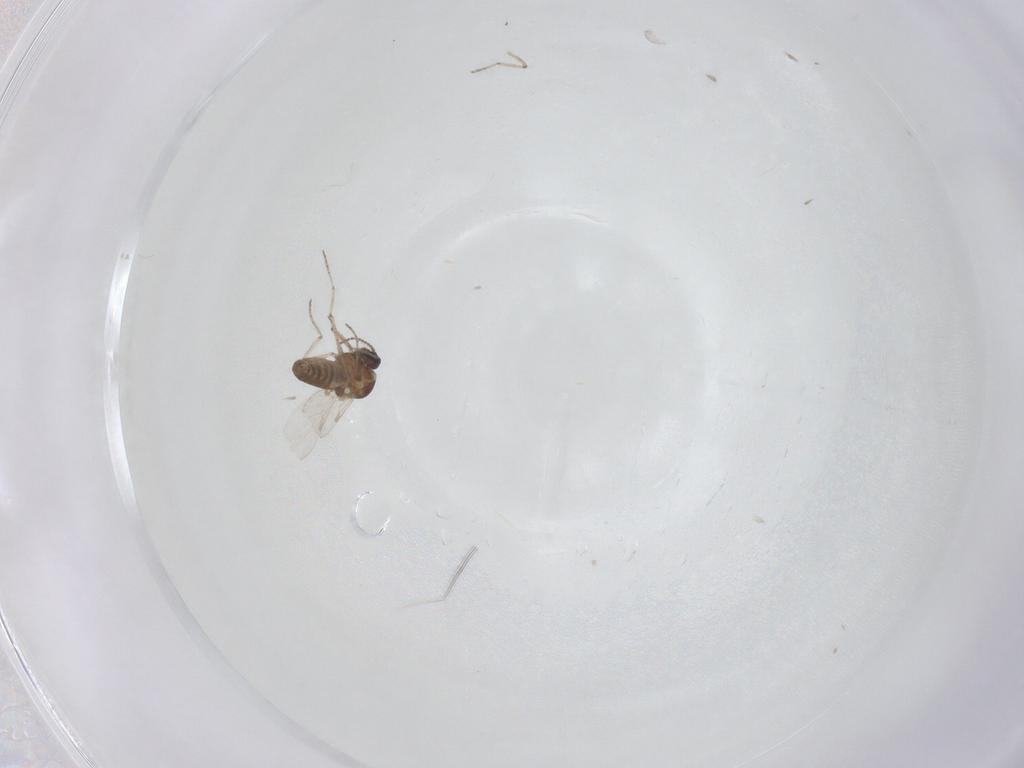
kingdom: Animalia
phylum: Arthropoda
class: Insecta
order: Diptera
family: Ceratopogonidae
